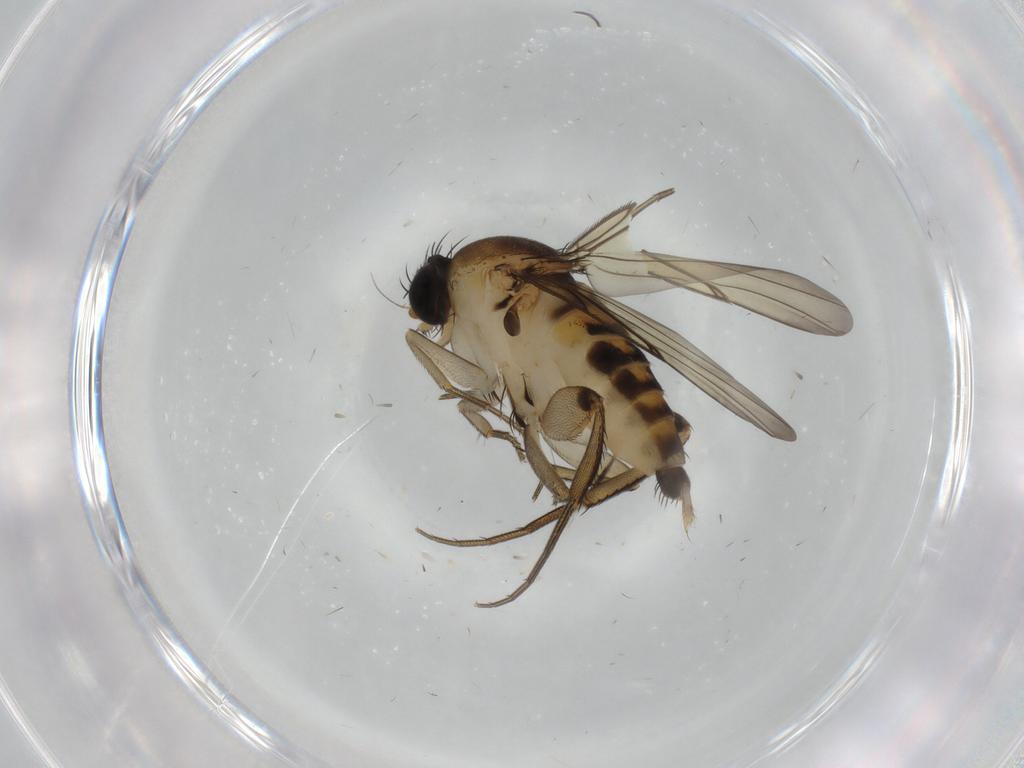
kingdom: Animalia
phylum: Arthropoda
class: Insecta
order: Diptera
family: Phoridae
